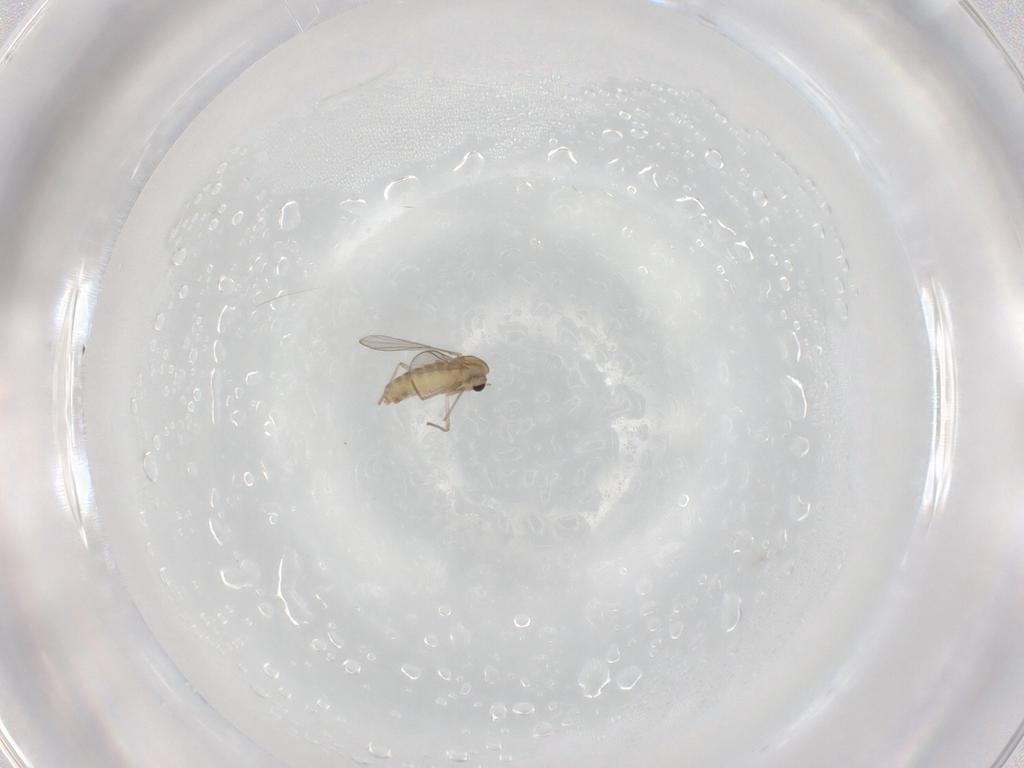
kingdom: Animalia
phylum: Arthropoda
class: Insecta
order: Diptera
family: Chironomidae
